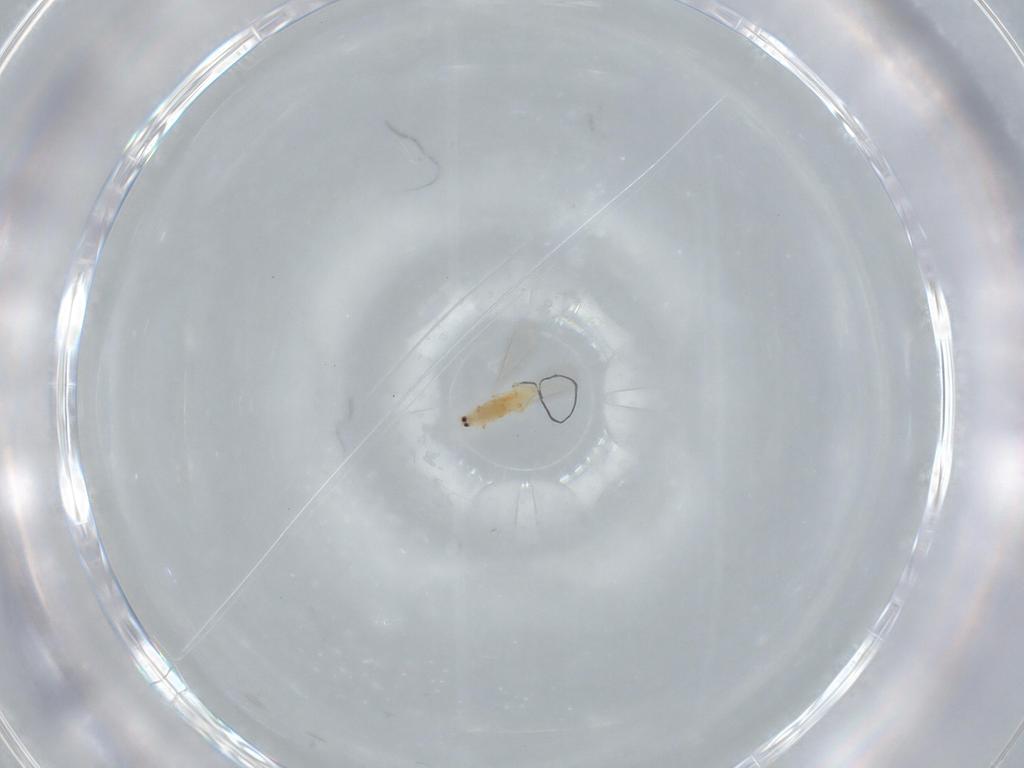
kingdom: Animalia
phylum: Arthropoda
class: Insecta
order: Hemiptera
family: Delphacidae
